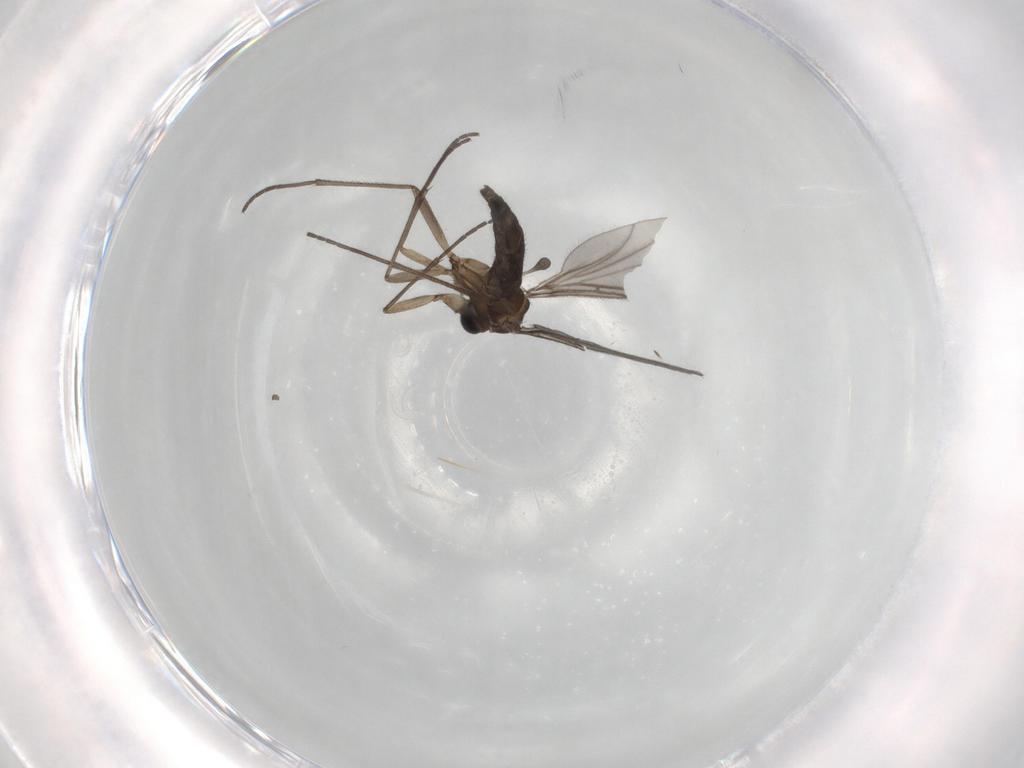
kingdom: Animalia
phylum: Arthropoda
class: Insecta
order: Diptera
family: Sciaridae
